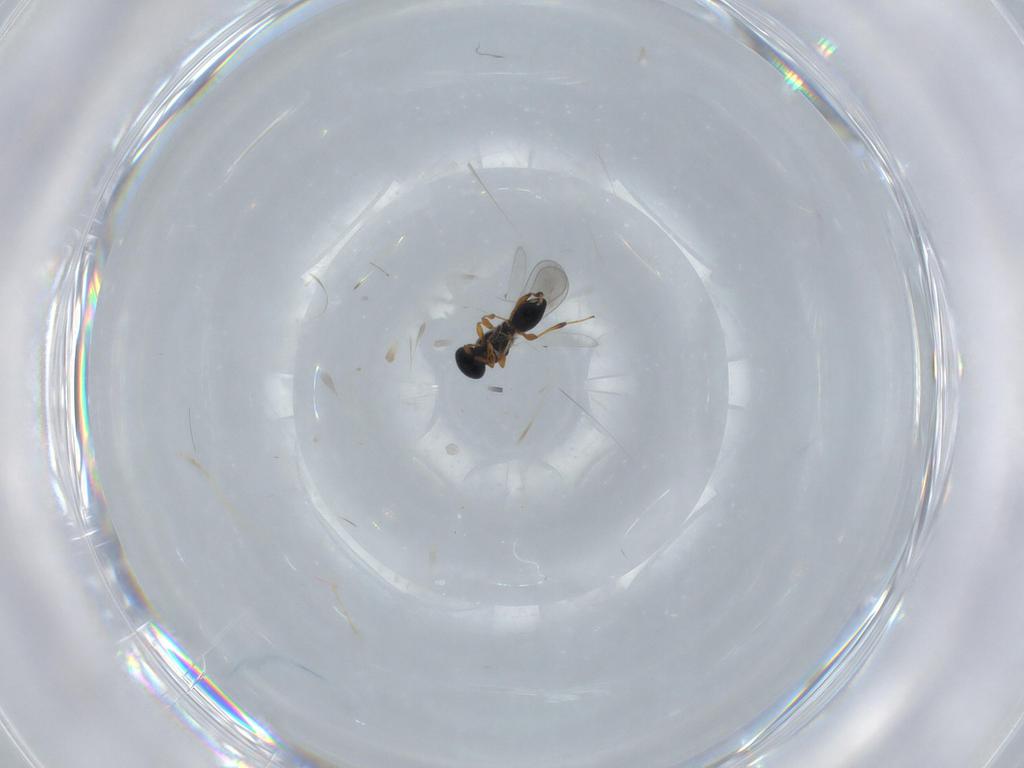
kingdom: Animalia
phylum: Arthropoda
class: Insecta
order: Hymenoptera
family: Platygastridae
